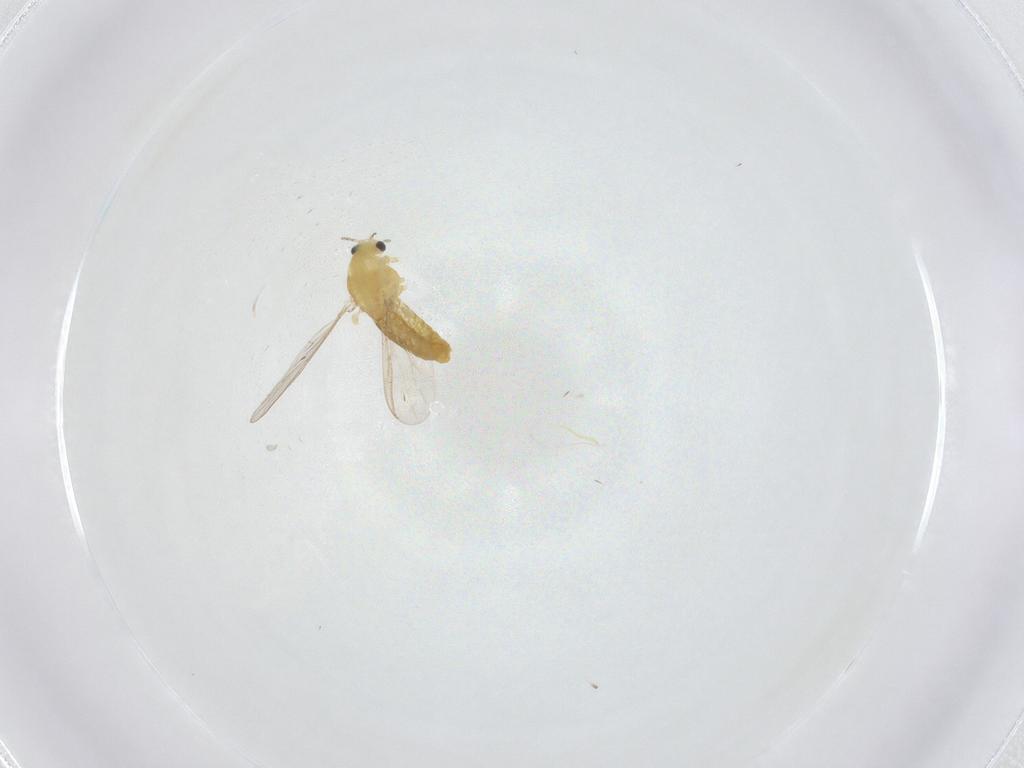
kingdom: Animalia
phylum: Arthropoda
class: Insecta
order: Diptera
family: Chironomidae
